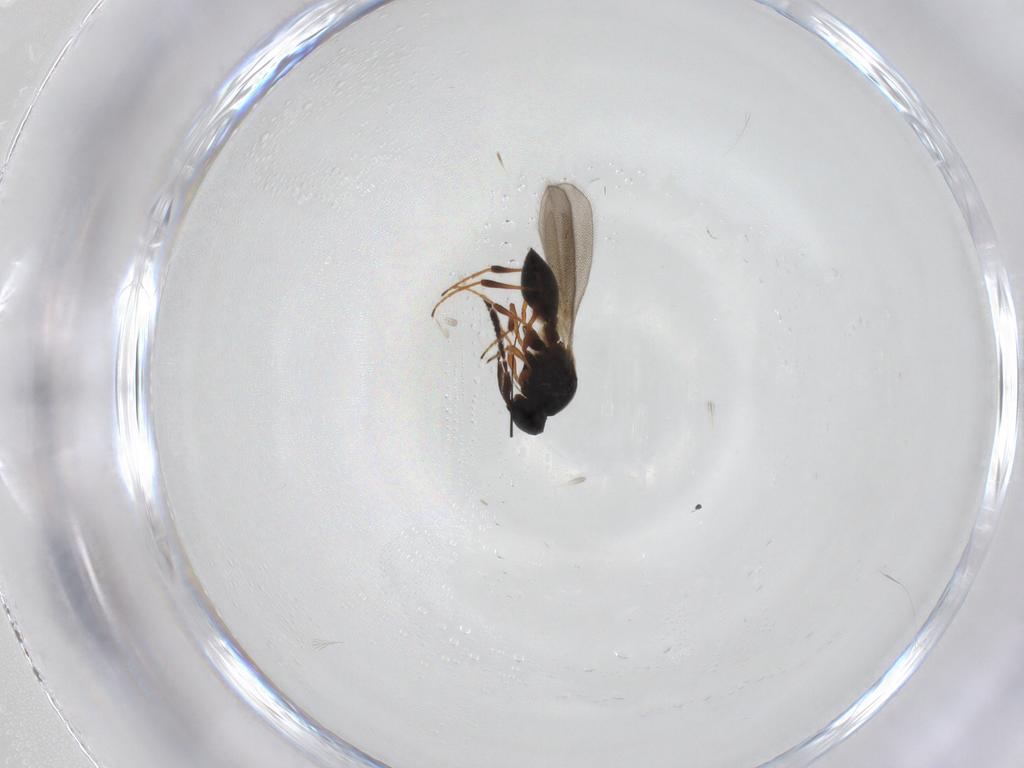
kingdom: Animalia
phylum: Arthropoda
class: Insecta
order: Hymenoptera
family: Platygastridae
